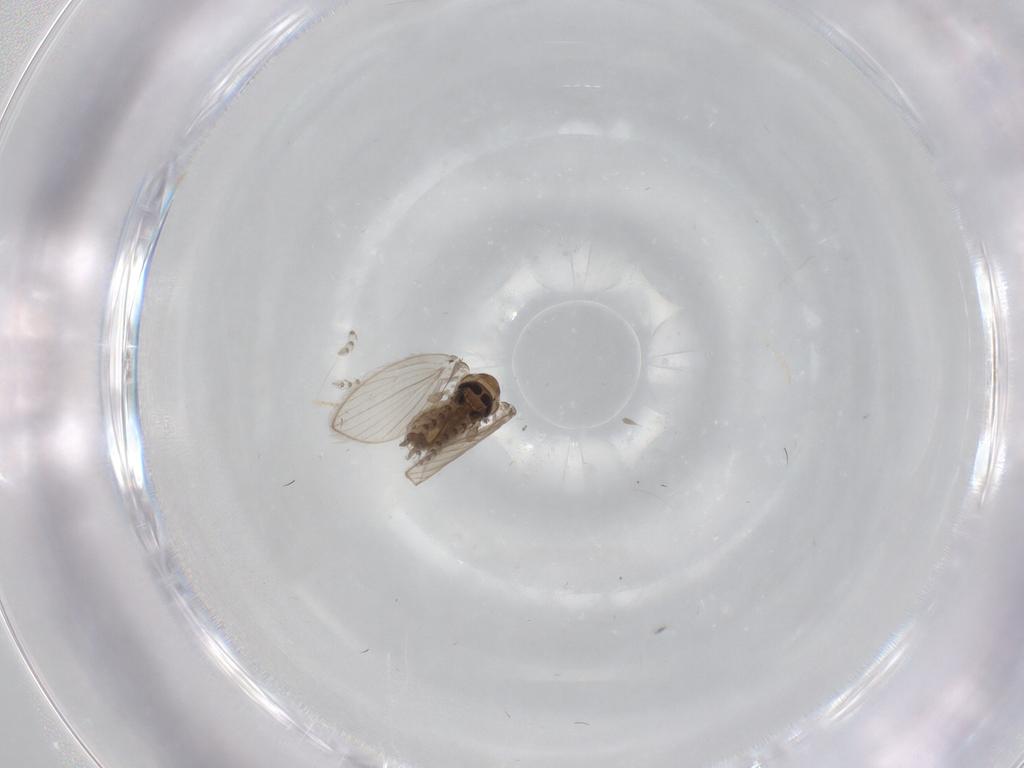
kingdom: Animalia
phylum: Arthropoda
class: Insecta
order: Diptera
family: Psychodidae
